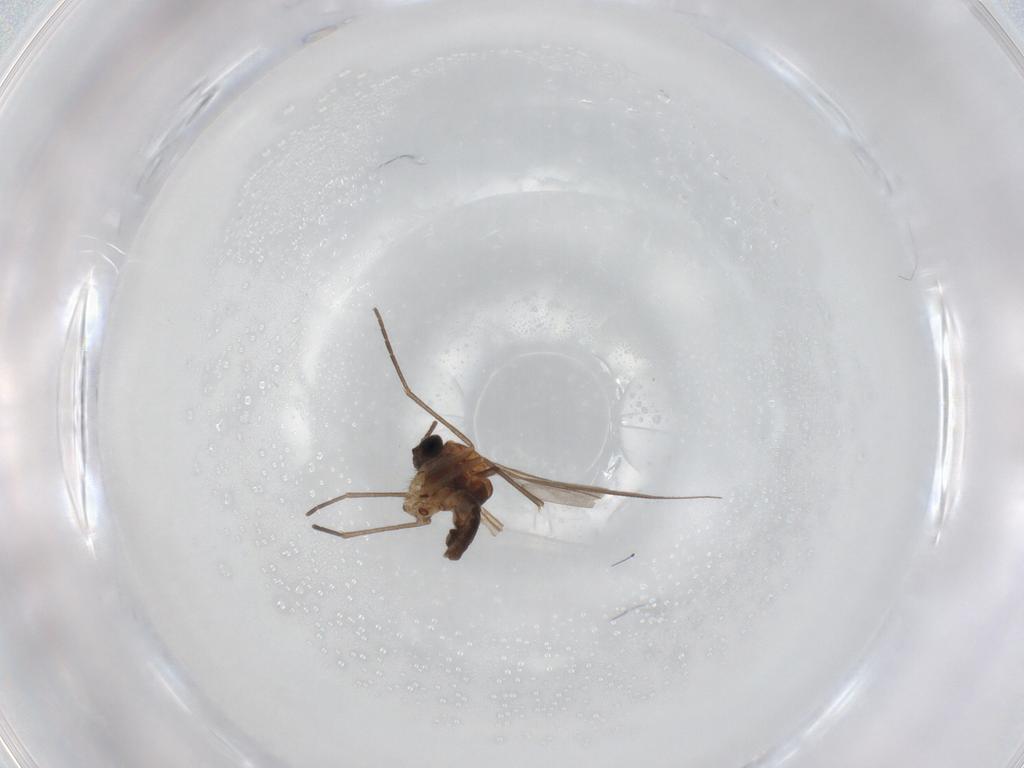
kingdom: Animalia
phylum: Arthropoda
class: Insecta
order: Diptera
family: Sciaridae
